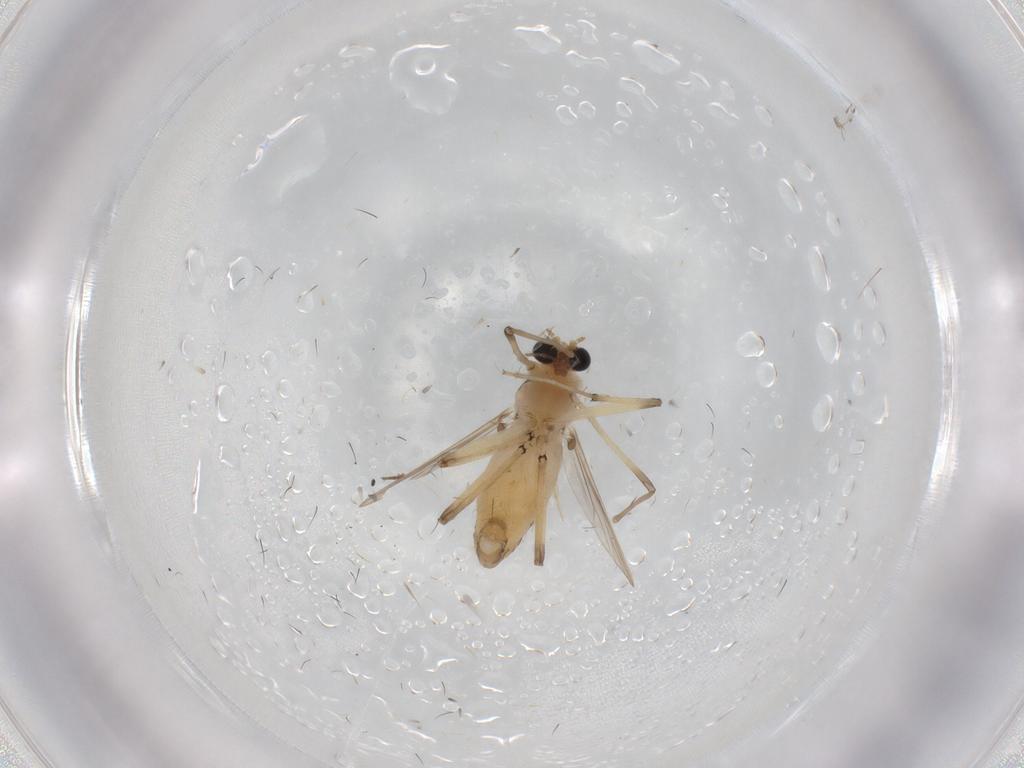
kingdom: Animalia
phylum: Arthropoda
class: Insecta
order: Diptera
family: Chironomidae
